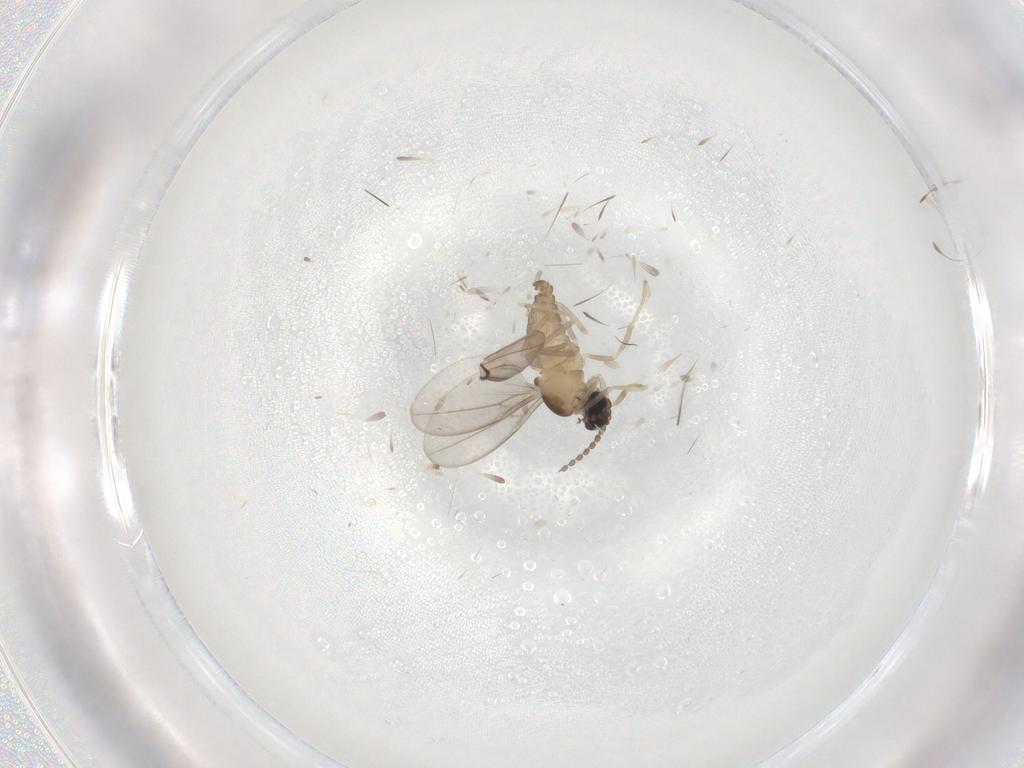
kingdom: Animalia
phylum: Arthropoda
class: Insecta
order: Diptera
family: Cecidomyiidae
